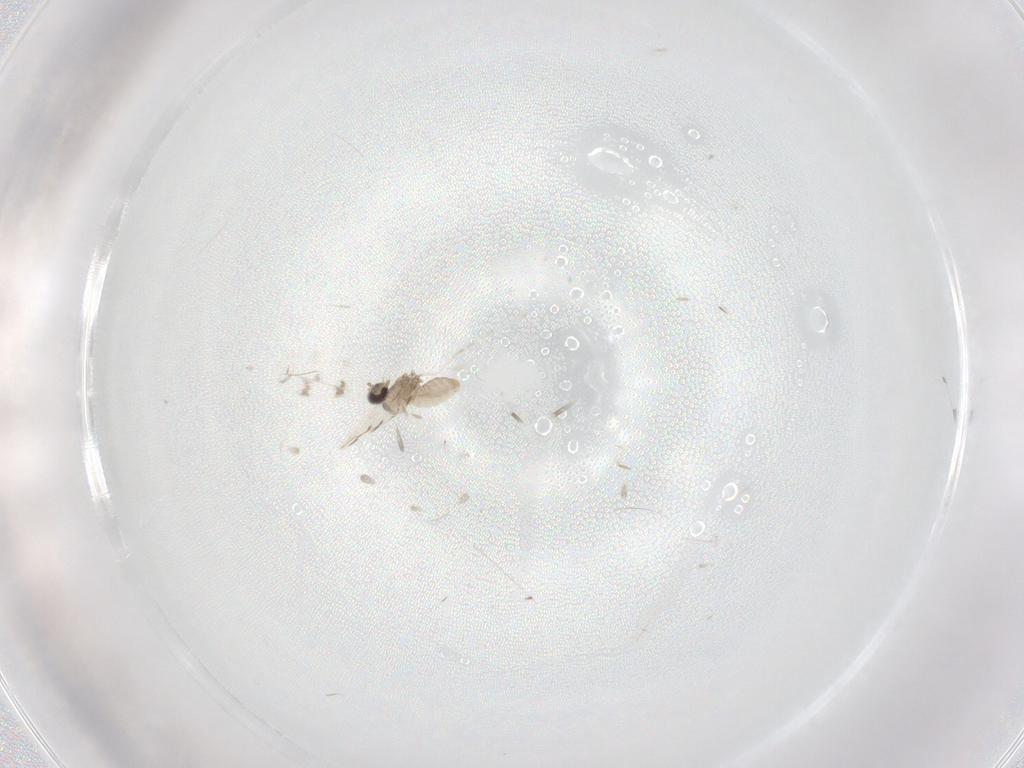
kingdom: Animalia
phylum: Arthropoda
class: Insecta
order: Diptera
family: Cecidomyiidae
